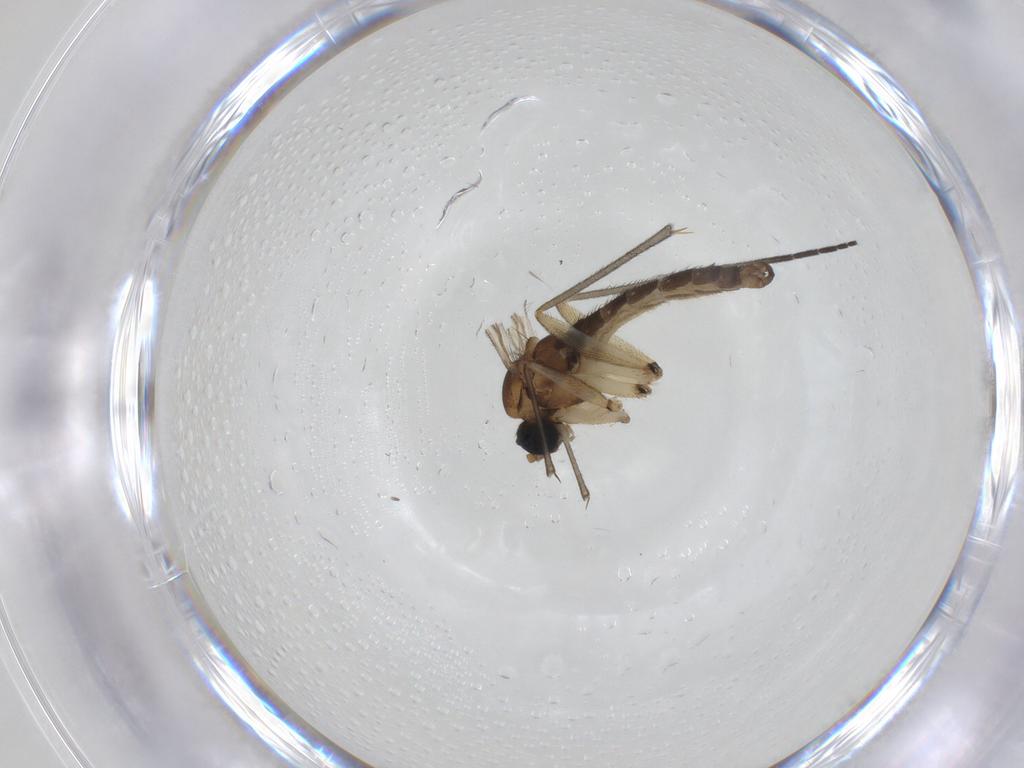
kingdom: Animalia
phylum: Arthropoda
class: Insecta
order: Diptera
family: Sciaridae
